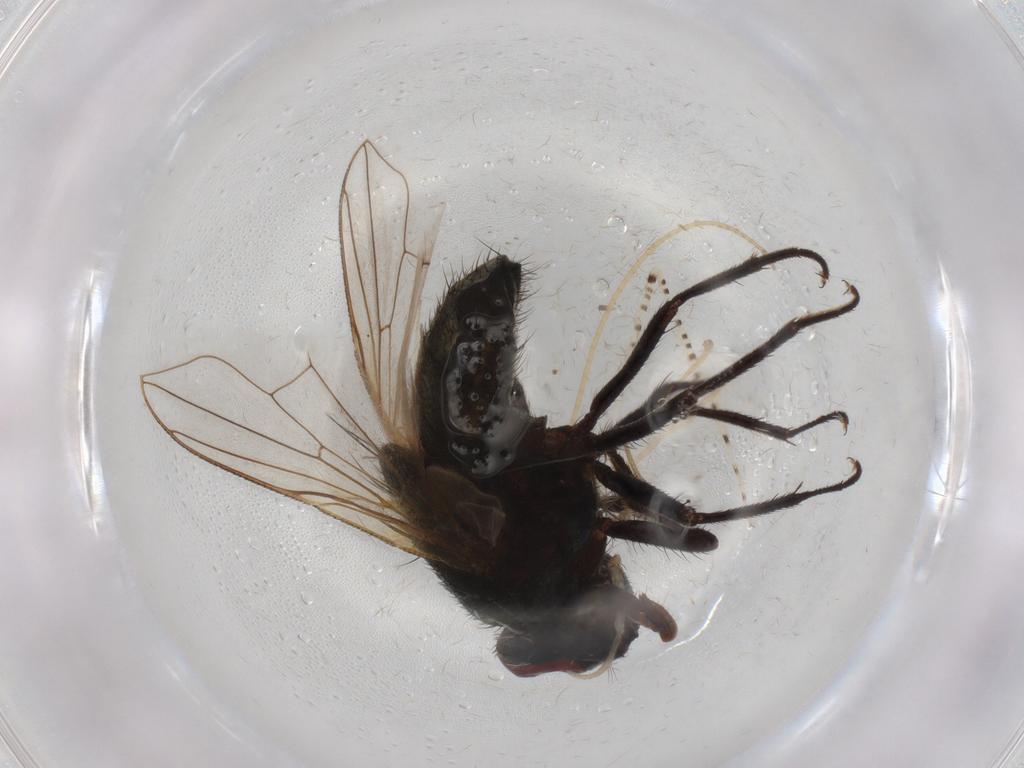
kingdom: Animalia
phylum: Arthropoda
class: Insecta
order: Diptera
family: Muscidae
